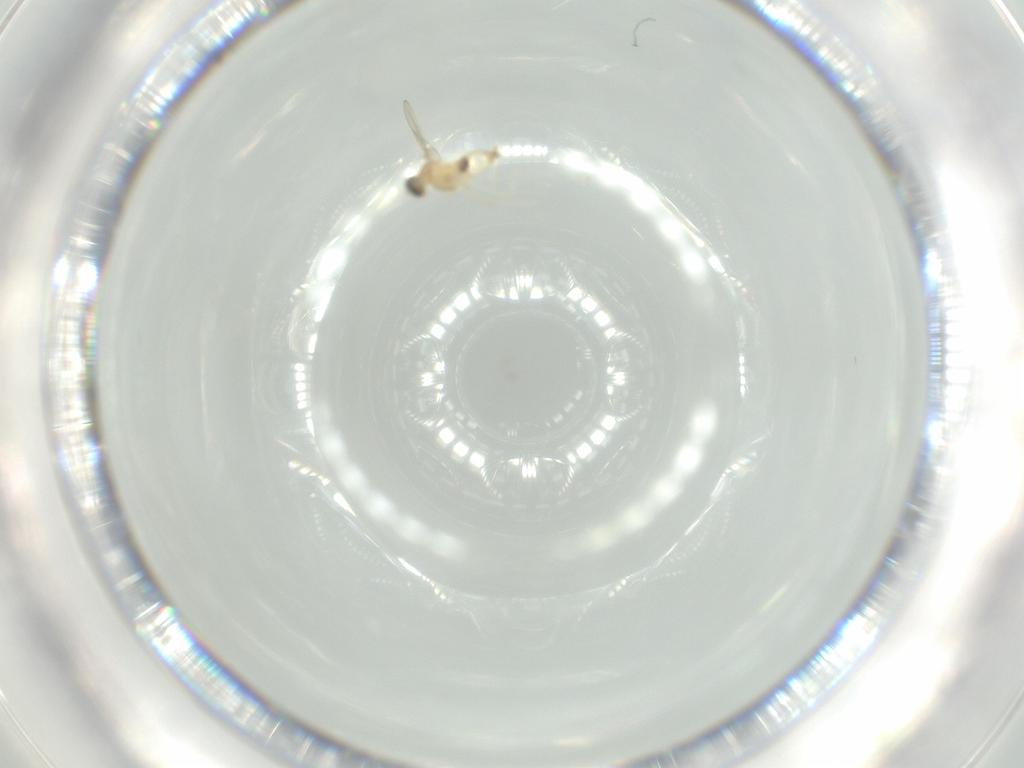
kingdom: Animalia
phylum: Arthropoda
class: Insecta
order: Diptera
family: Cecidomyiidae
